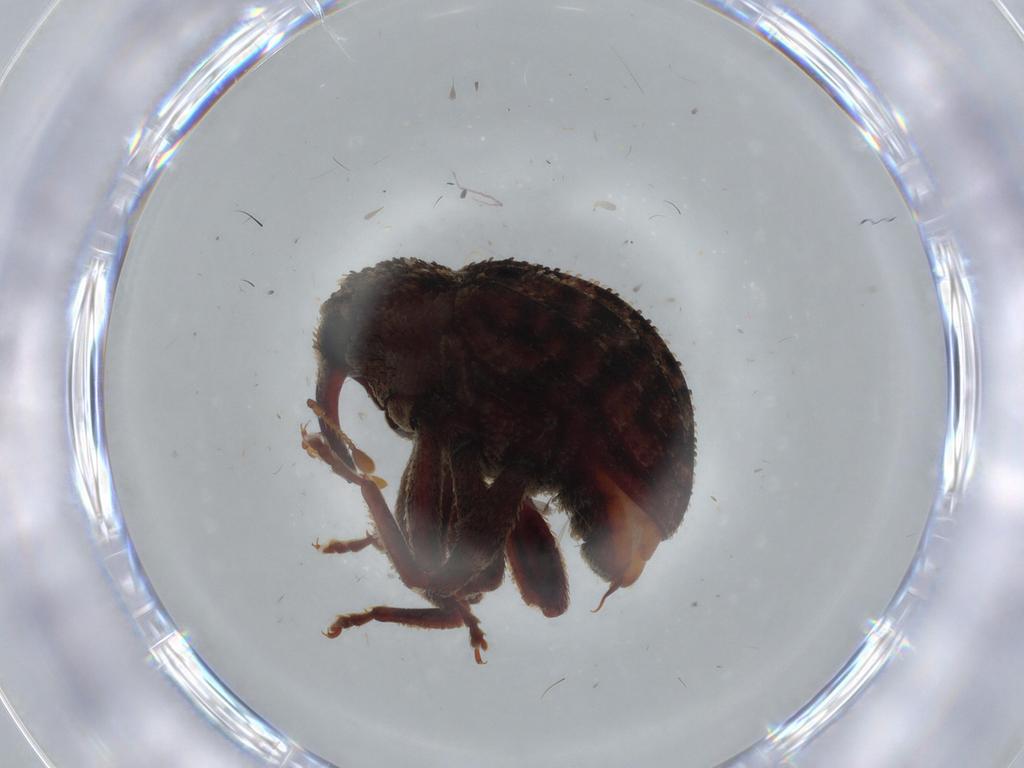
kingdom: Animalia
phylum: Arthropoda
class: Insecta
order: Coleoptera
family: Curculionidae
